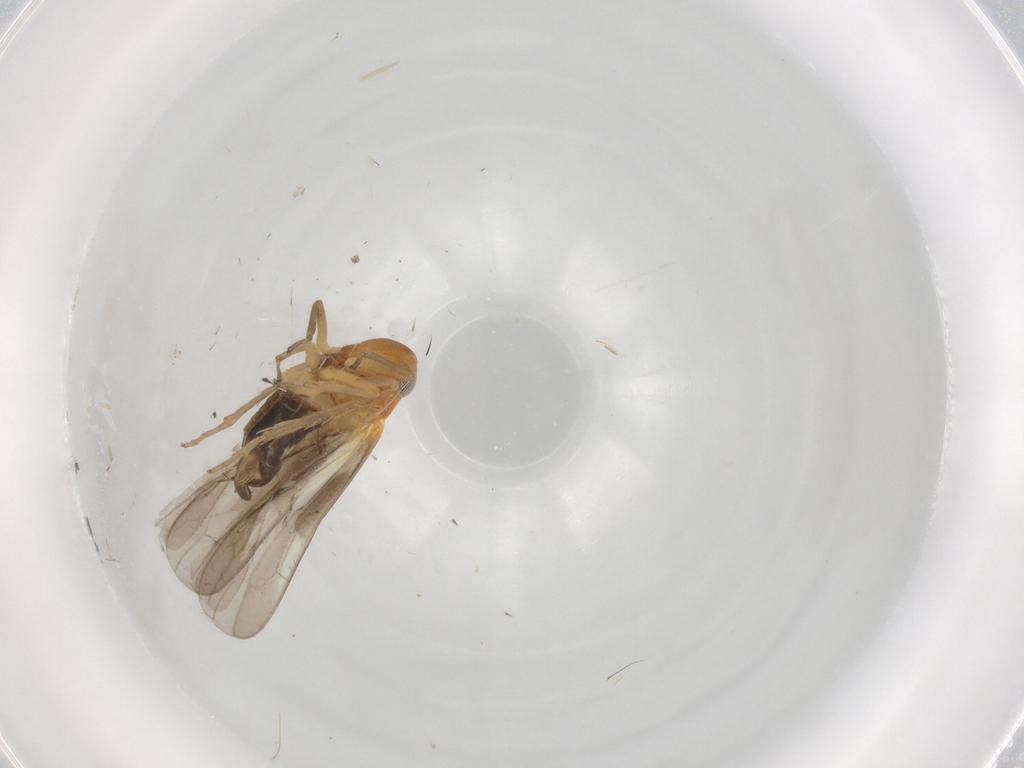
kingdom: Animalia
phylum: Arthropoda
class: Insecta
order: Hemiptera
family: Cicadellidae
